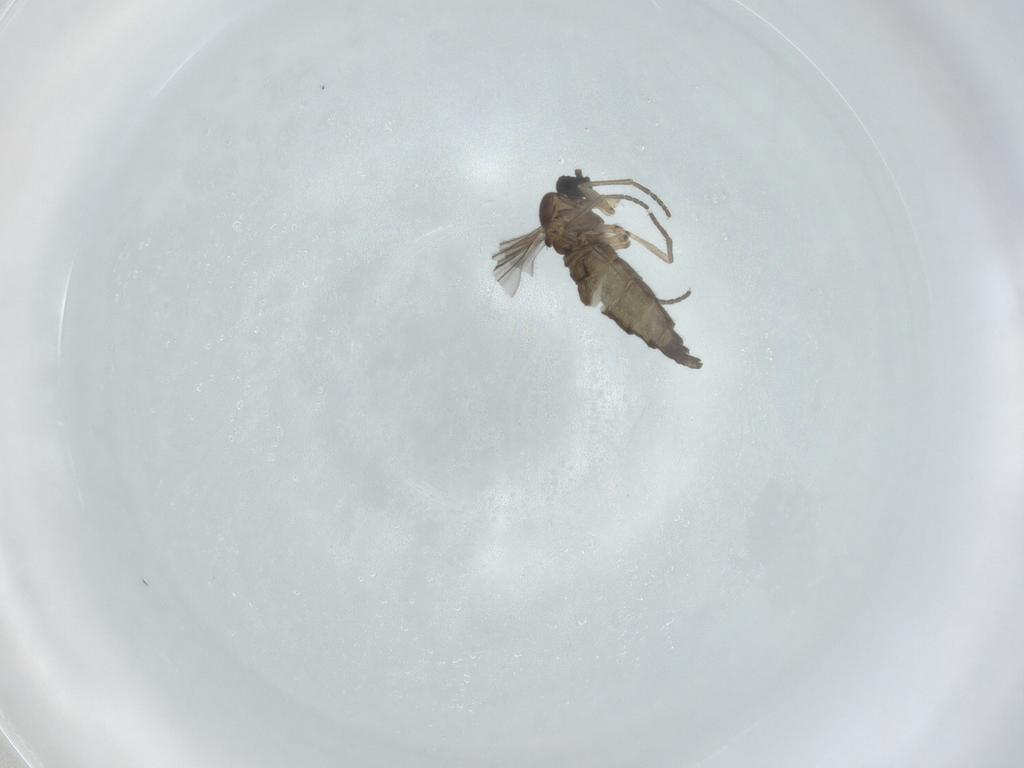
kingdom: Animalia
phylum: Arthropoda
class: Insecta
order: Diptera
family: Sciaridae
